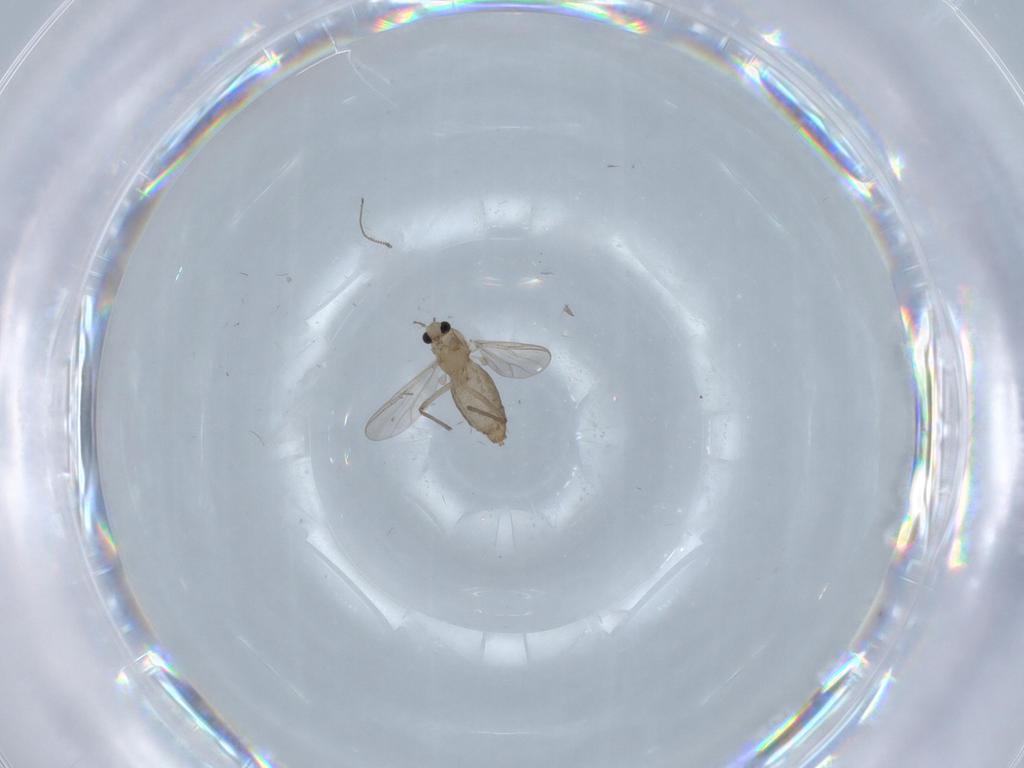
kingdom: Animalia
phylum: Arthropoda
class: Insecta
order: Diptera
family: Chironomidae
